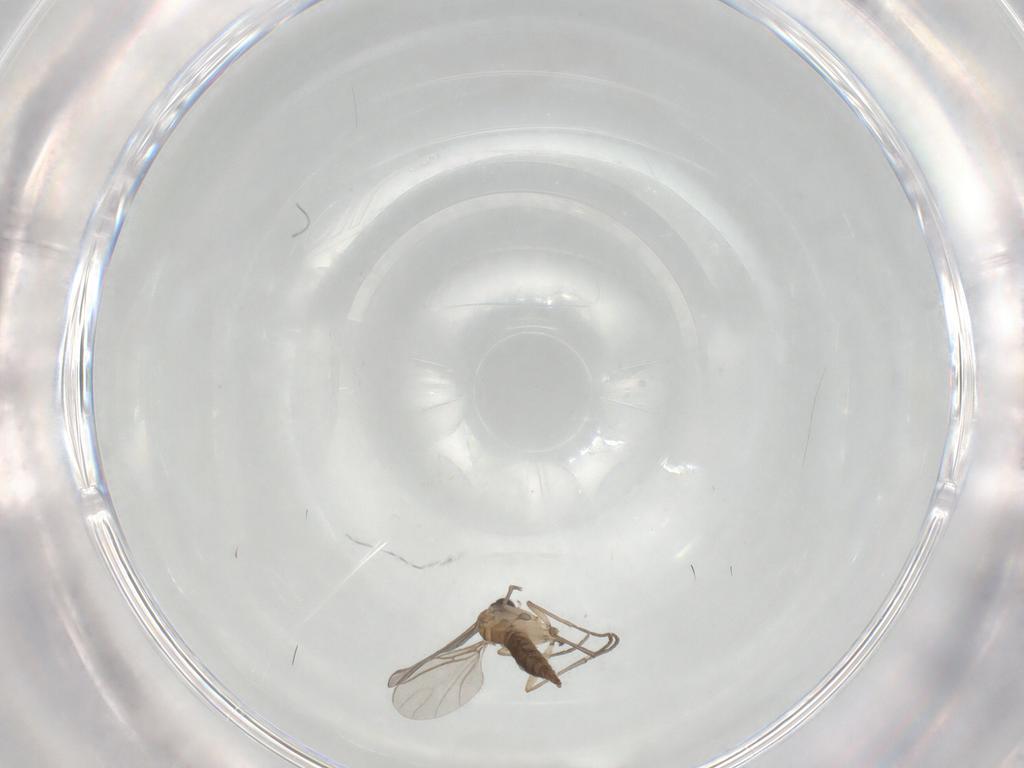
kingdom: Animalia
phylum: Arthropoda
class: Insecta
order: Diptera
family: Sciaridae
